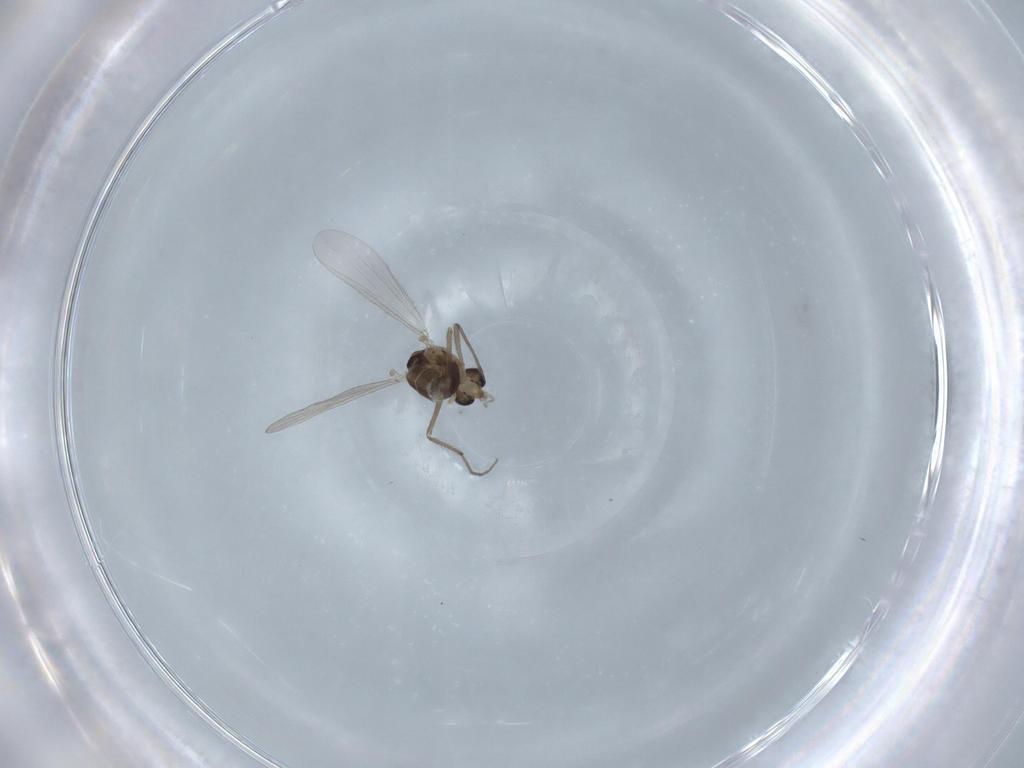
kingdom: Animalia
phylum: Arthropoda
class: Insecta
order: Diptera
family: Chironomidae
